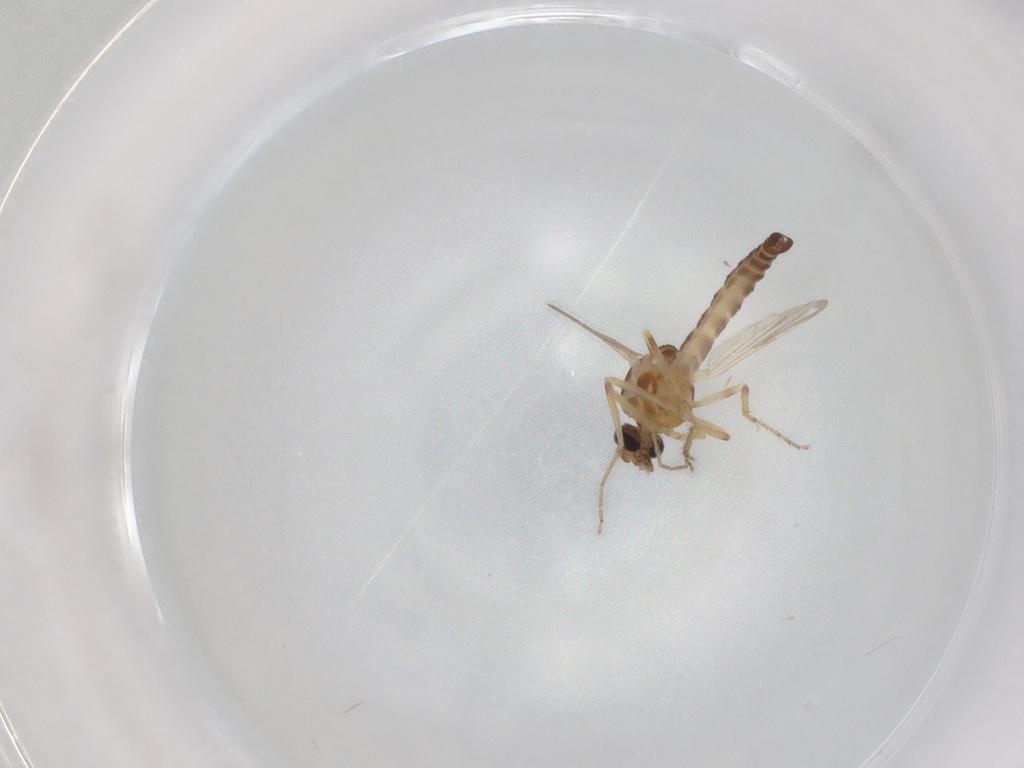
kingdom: Animalia
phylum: Arthropoda
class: Insecta
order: Diptera
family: Ceratopogonidae
